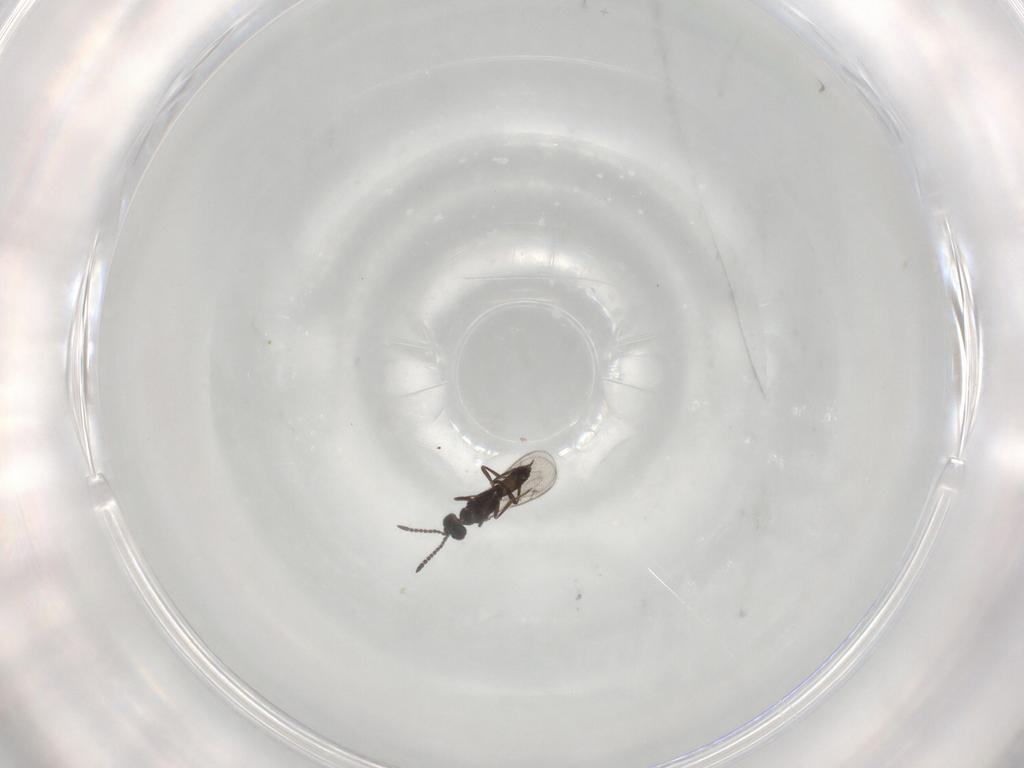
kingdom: Animalia
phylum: Arthropoda
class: Insecta
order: Hymenoptera
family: Eupelmidae
